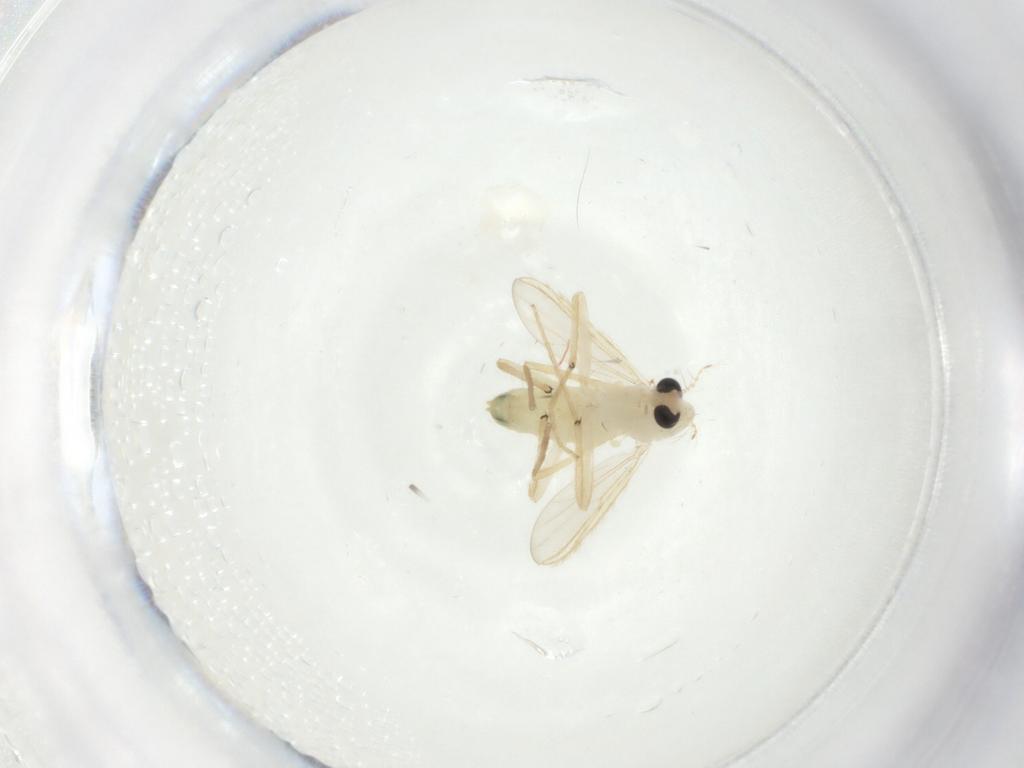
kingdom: Animalia
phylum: Arthropoda
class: Insecta
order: Diptera
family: Chironomidae
